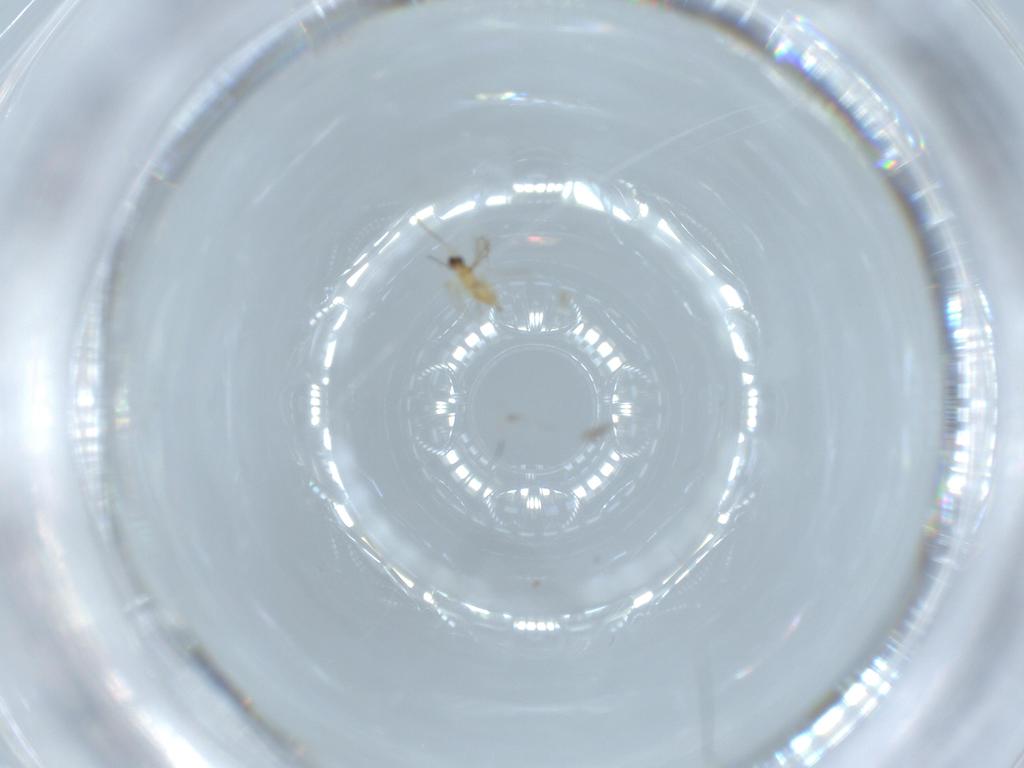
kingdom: Animalia
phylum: Arthropoda
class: Insecta
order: Hymenoptera
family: Mymaridae
